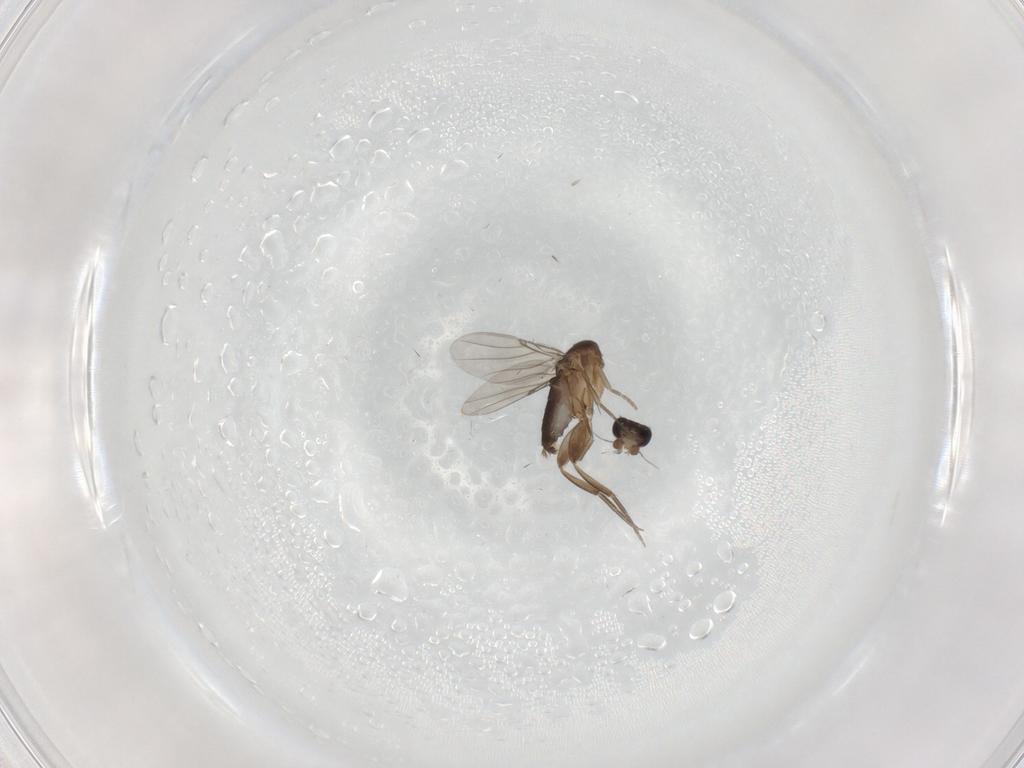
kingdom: Animalia
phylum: Arthropoda
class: Insecta
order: Diptera
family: Phoridae
